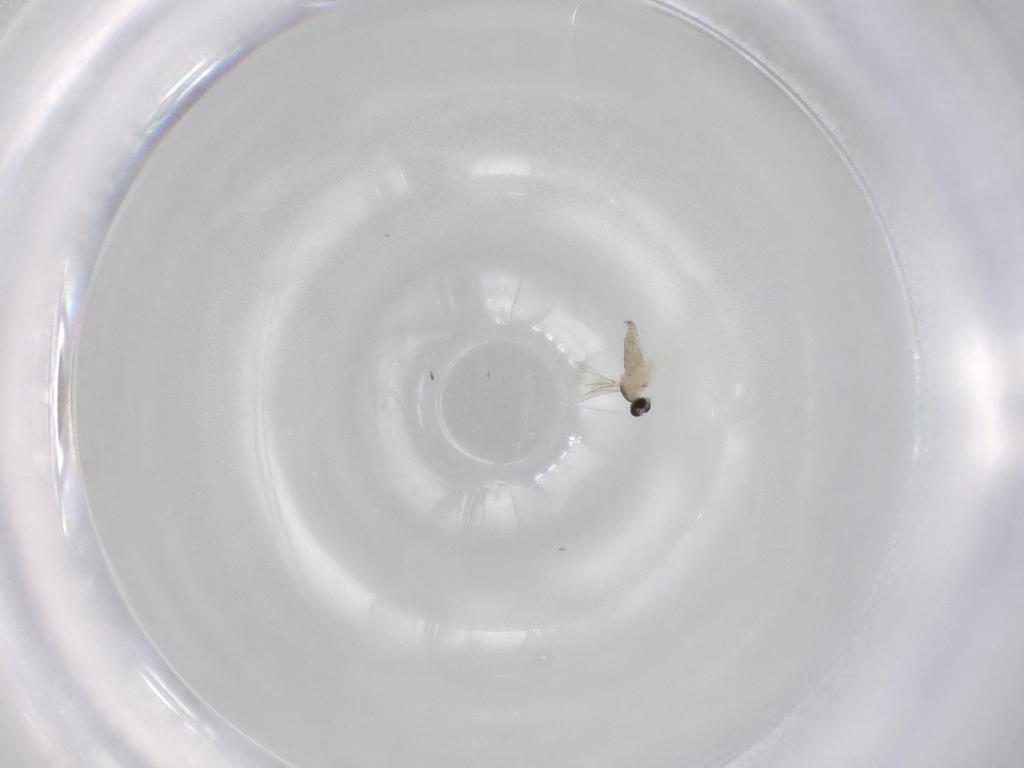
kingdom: Animalia
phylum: Arthropoda
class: Insecta
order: Diptera
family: Cecidomyiidae
